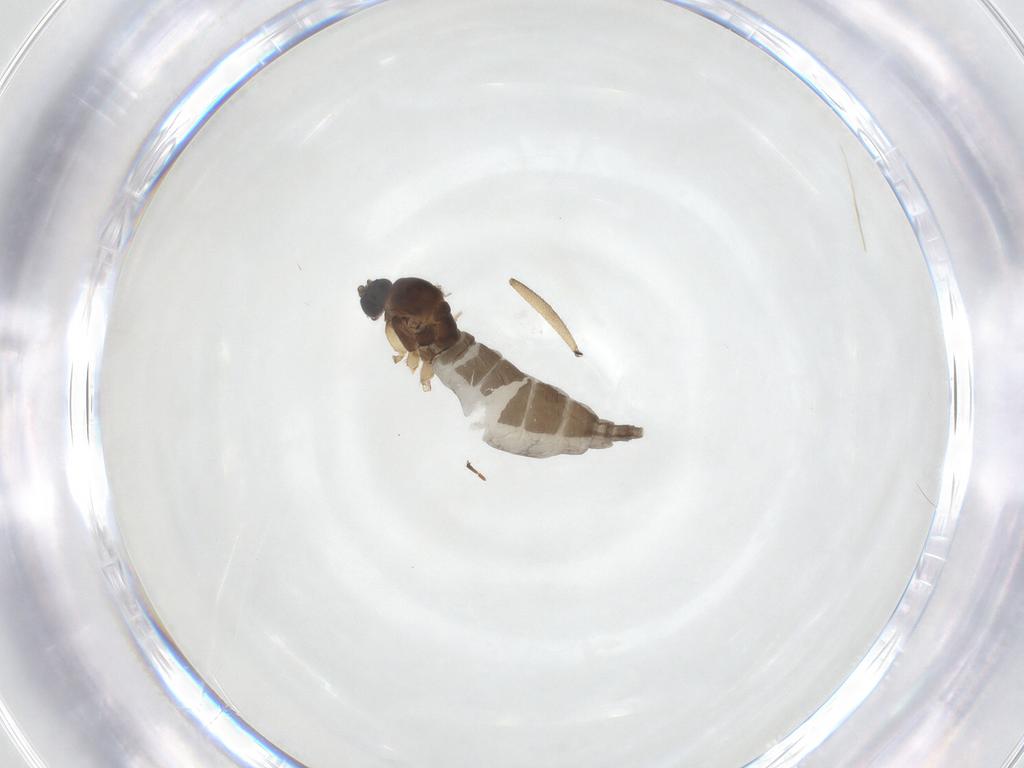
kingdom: Animalia
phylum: Arthropoda
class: Insecta
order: Diptera
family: Sciaridae
